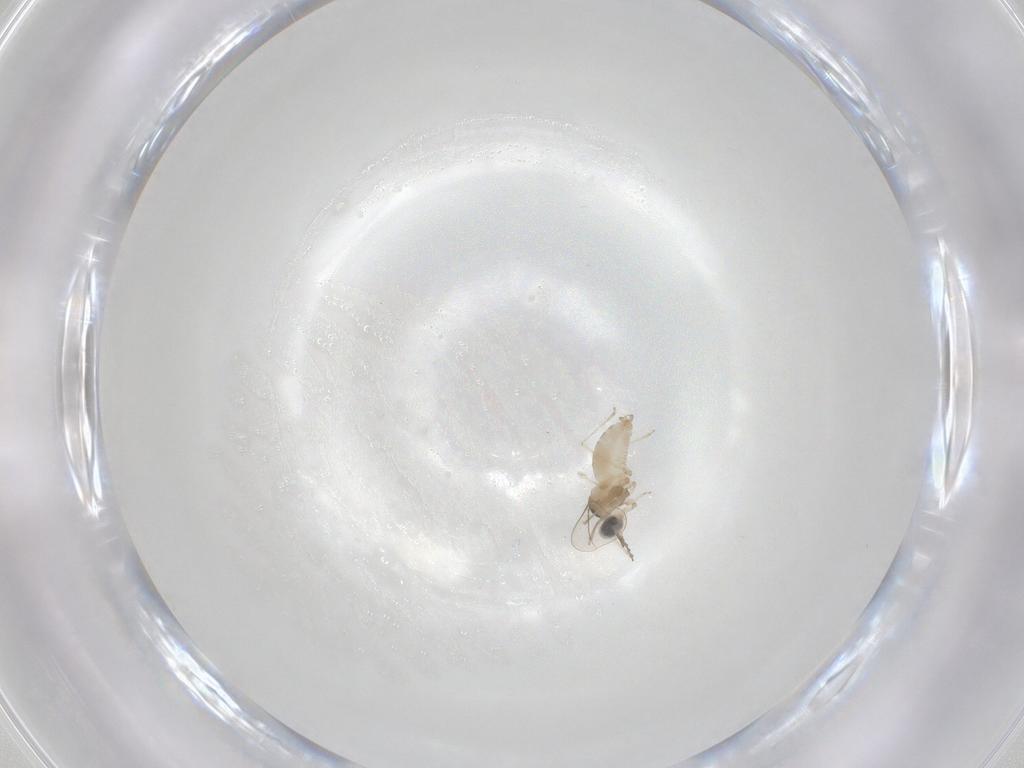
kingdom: Animalia
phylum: Arthropoda
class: Insecta
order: Diptera
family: Cecidomyiidae
